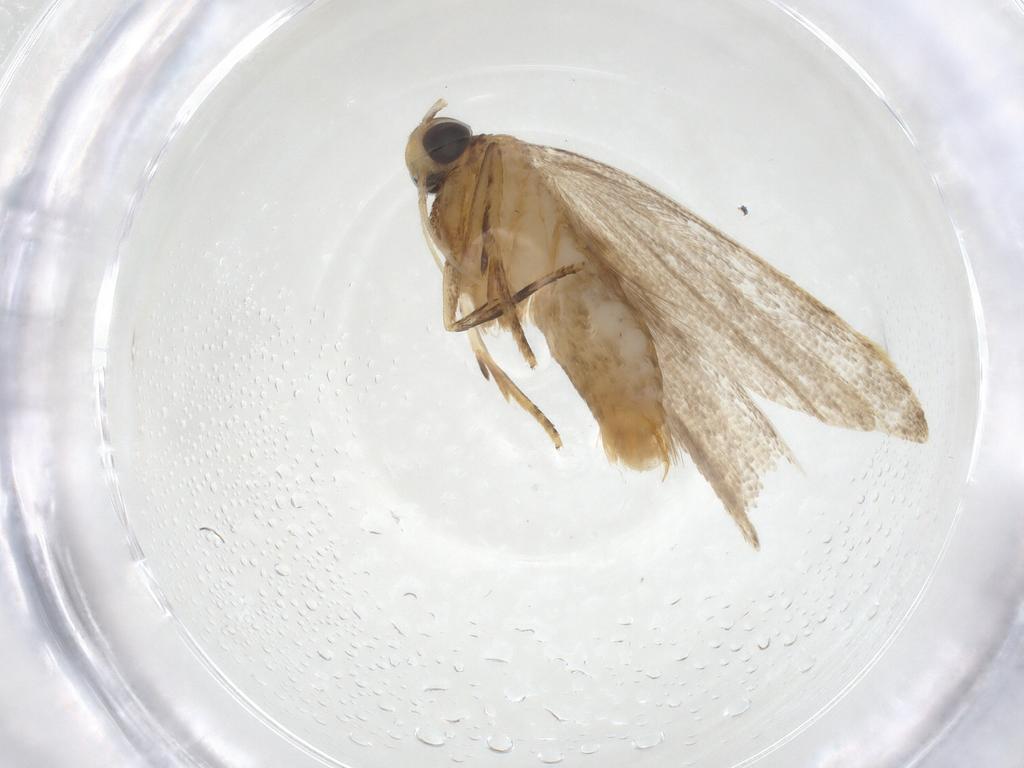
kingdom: Animalia
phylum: Arthropoda
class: Insecta
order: Lepidoptera
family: Oecophoridae
